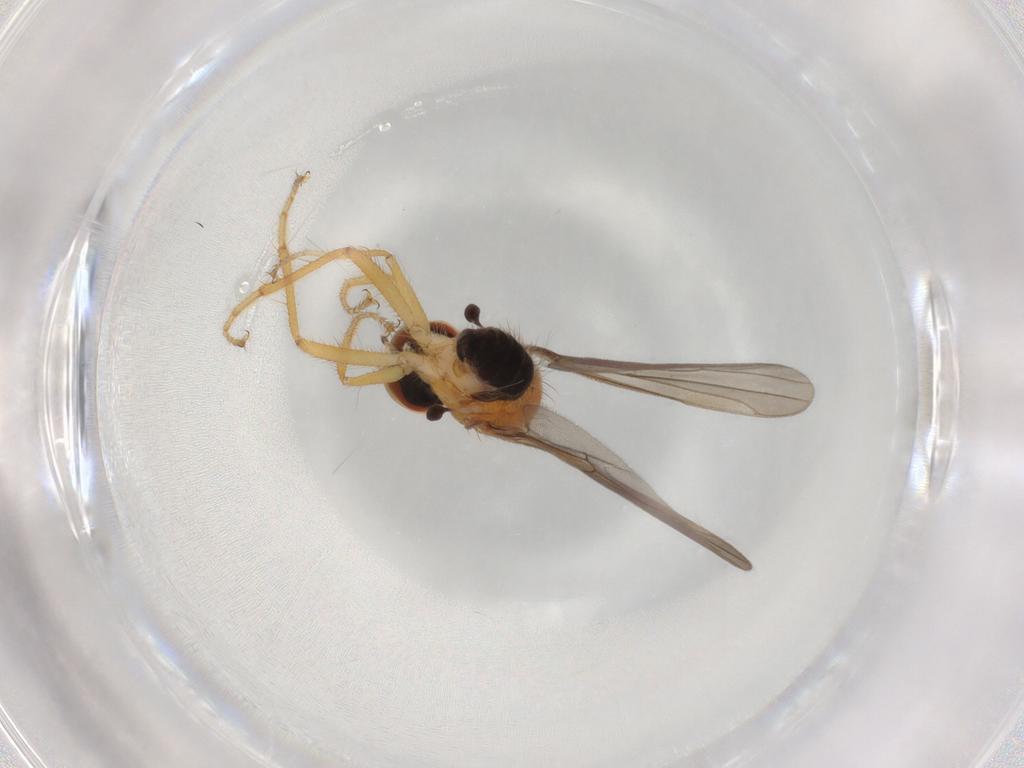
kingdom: Animalia
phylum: Arthropoda
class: Insecta
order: Diptera
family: Hybotidae
